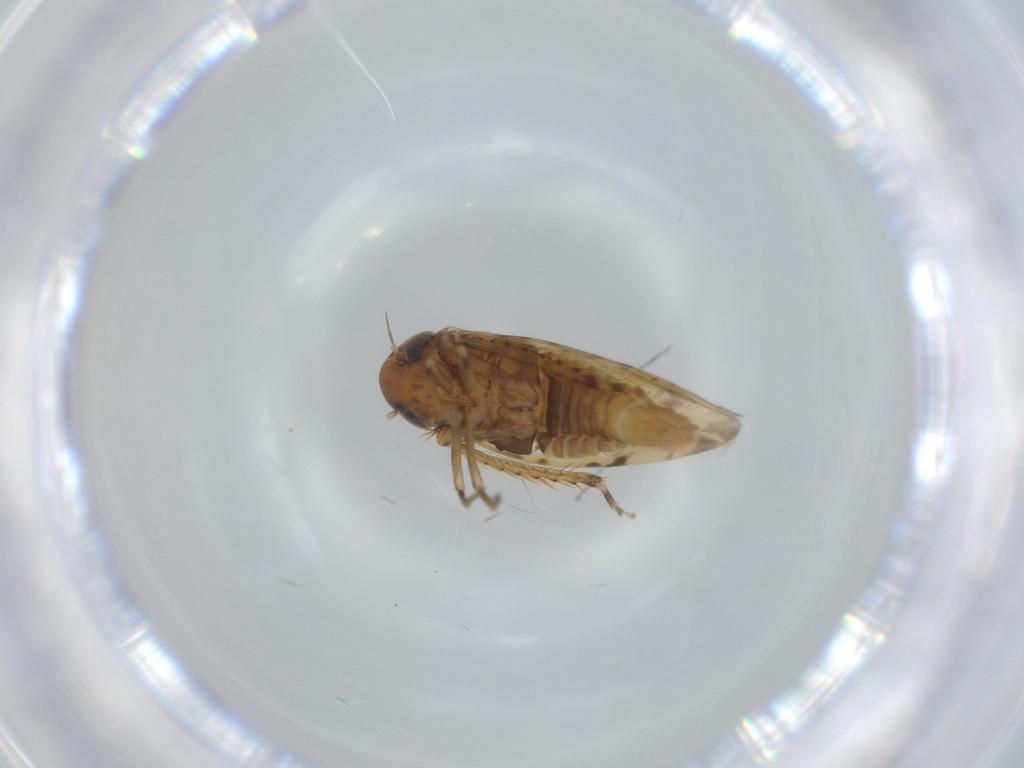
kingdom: Animalia
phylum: Arthropoda
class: Insecta
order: Hemiptera
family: Cicadellidae
